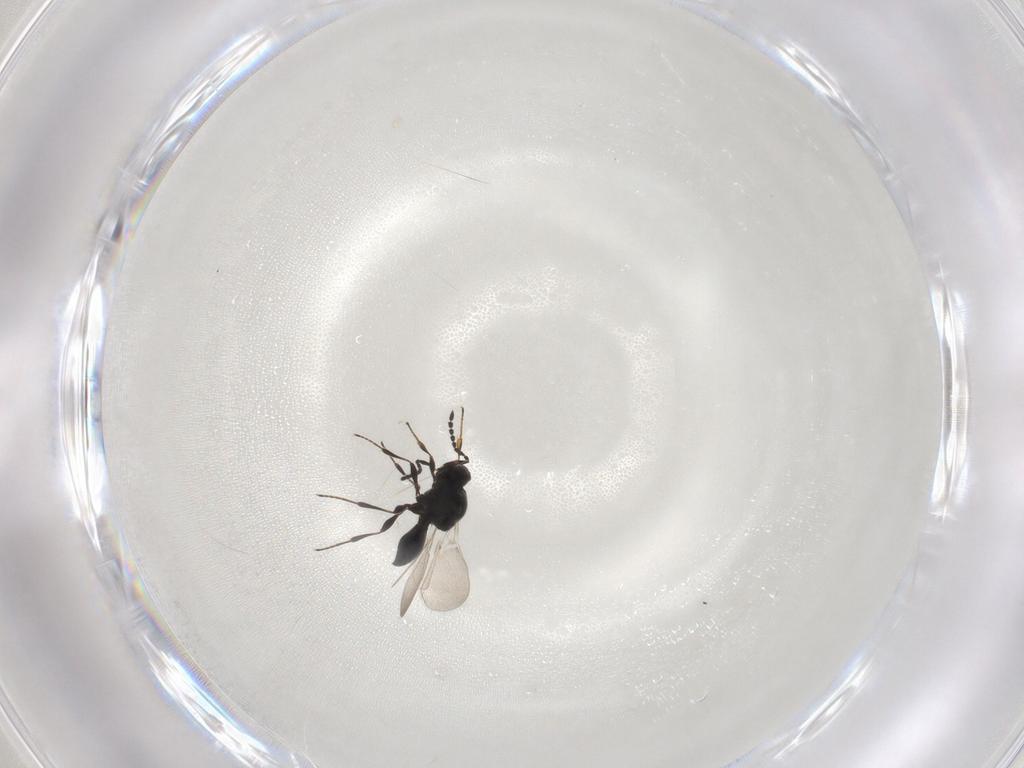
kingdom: Animalia
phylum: Arthropoda
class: Insecta
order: Hymenoptera
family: Platygastridae
